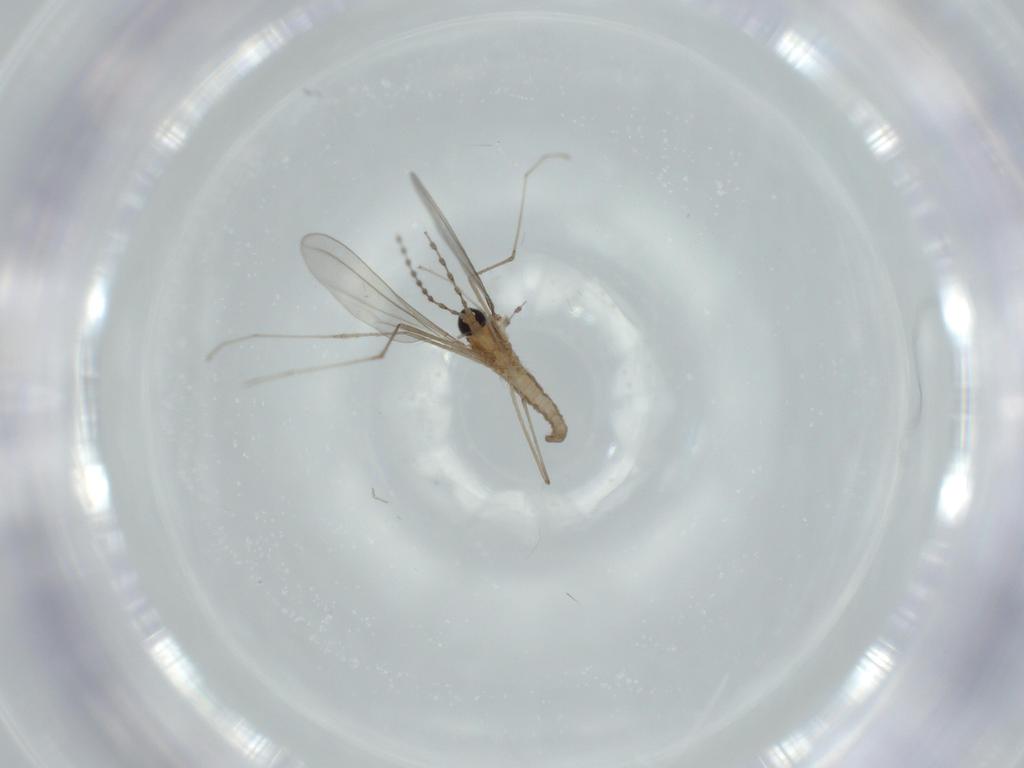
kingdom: Animalia
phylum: Arthropoda
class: Insecta
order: Diptera
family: Cecidomyiidae
